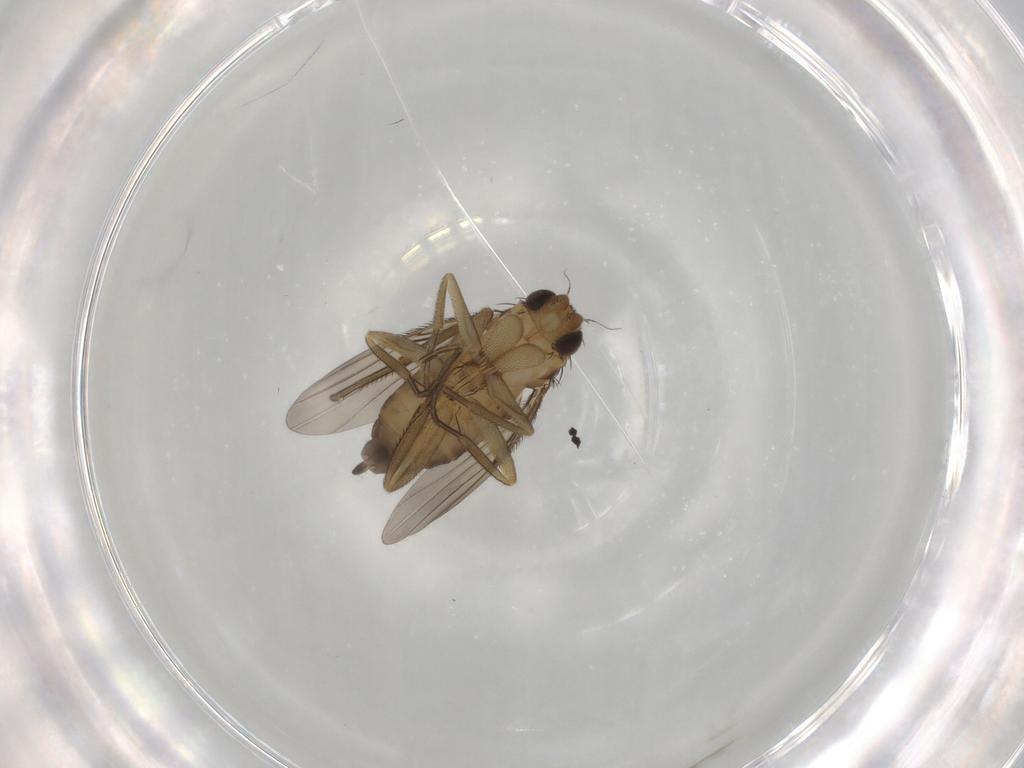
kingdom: Animalia
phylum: Arthropoda
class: Insecta
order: Diptera
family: Phoridae
